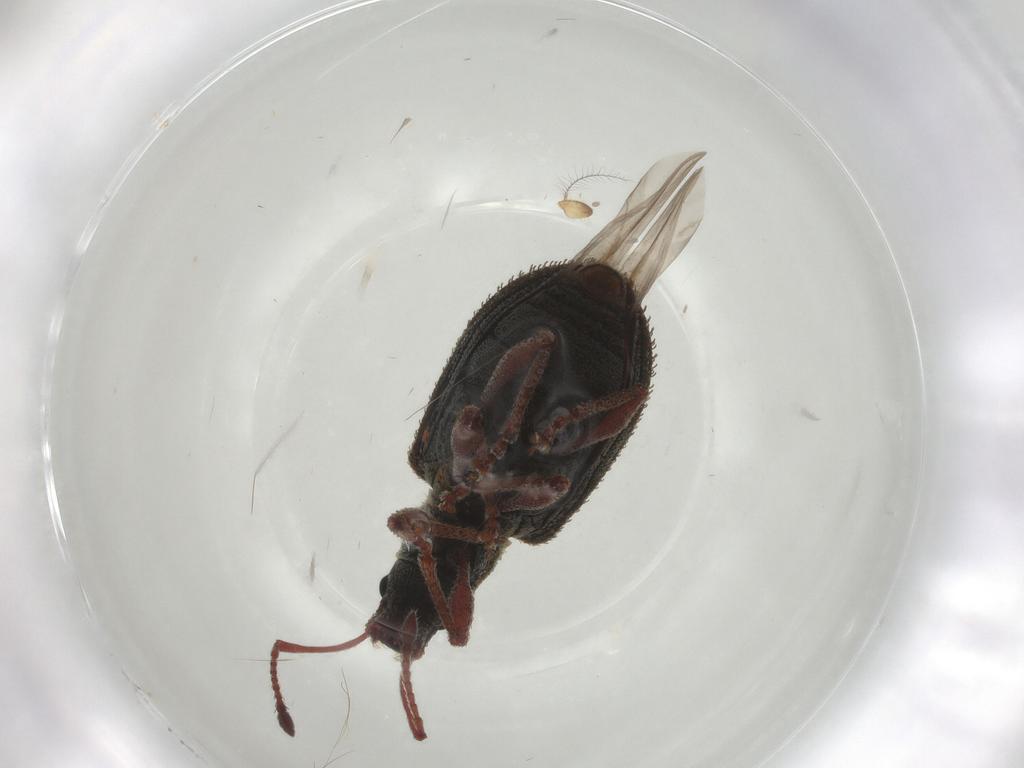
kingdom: Animalia
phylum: Arthropoda
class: Insecta
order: Coleoptera
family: Curculionidae
